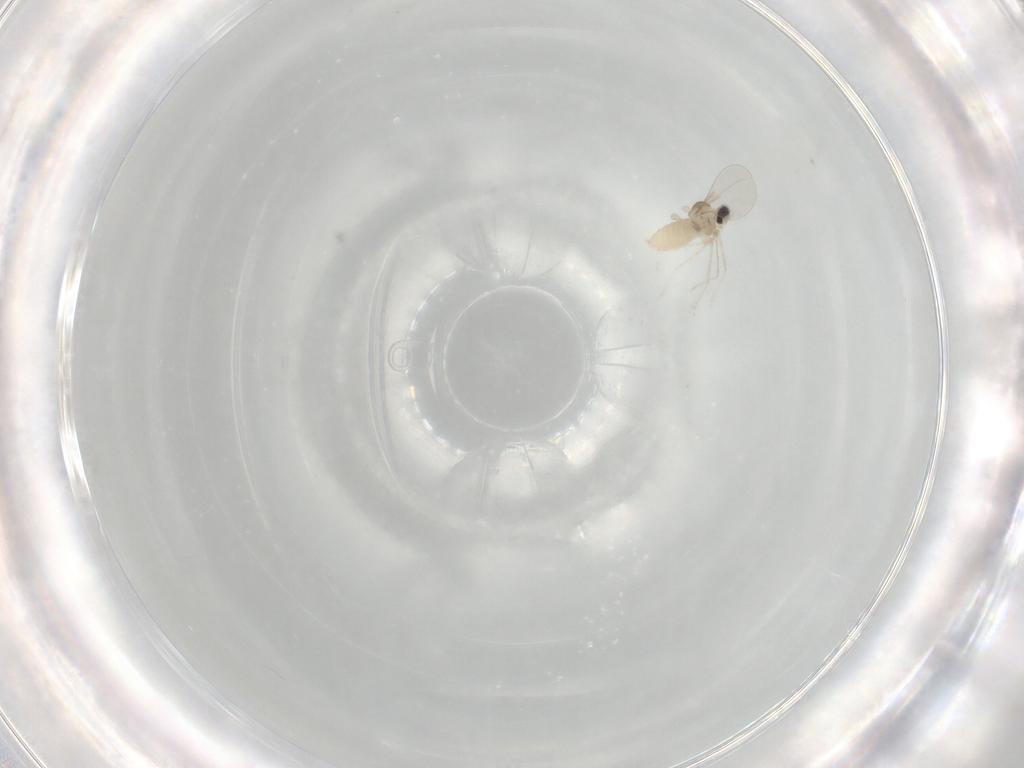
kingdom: Animalia
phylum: Arthropoda
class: Insecta
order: Diptera
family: Cecidomyiidae
